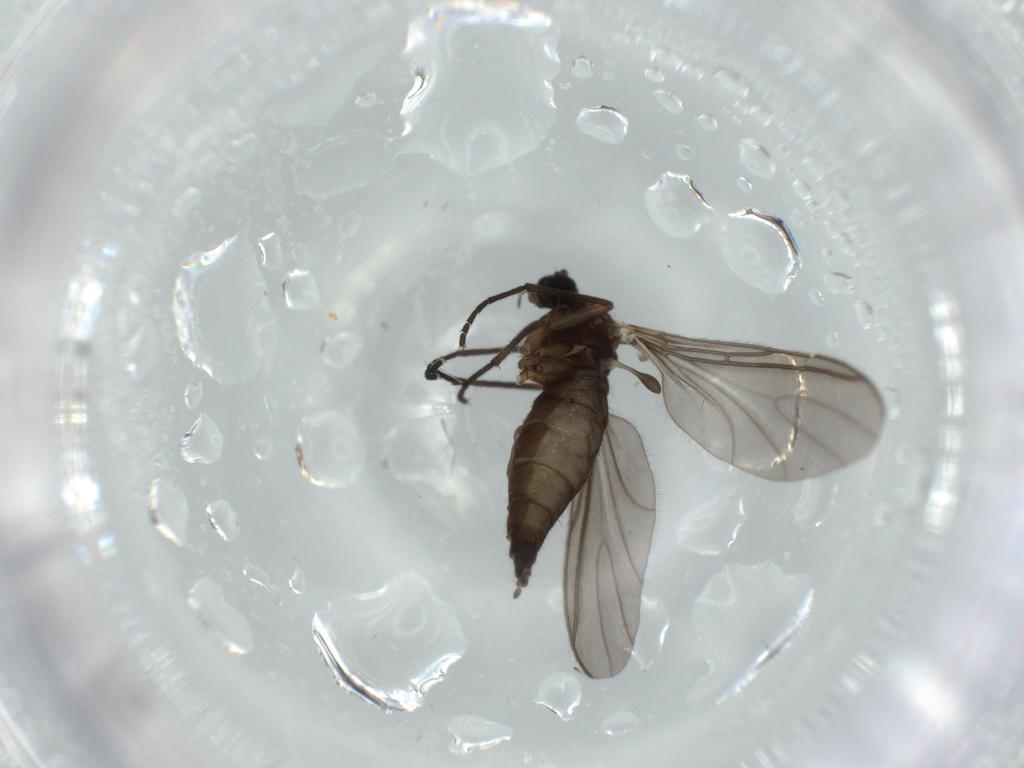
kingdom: Animalia
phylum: Arthropoda
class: Insecta
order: Diptera
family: Sciaridae
